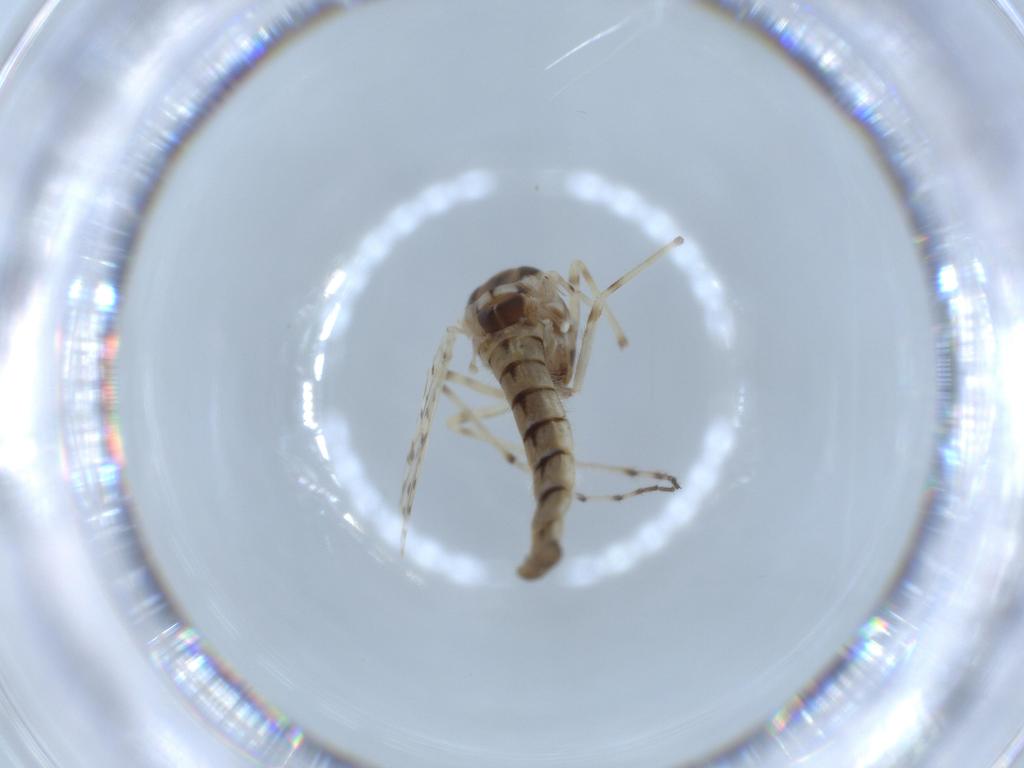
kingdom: Animalia
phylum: Arthropoda
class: Insecta
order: Diptera
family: Chironomidae
